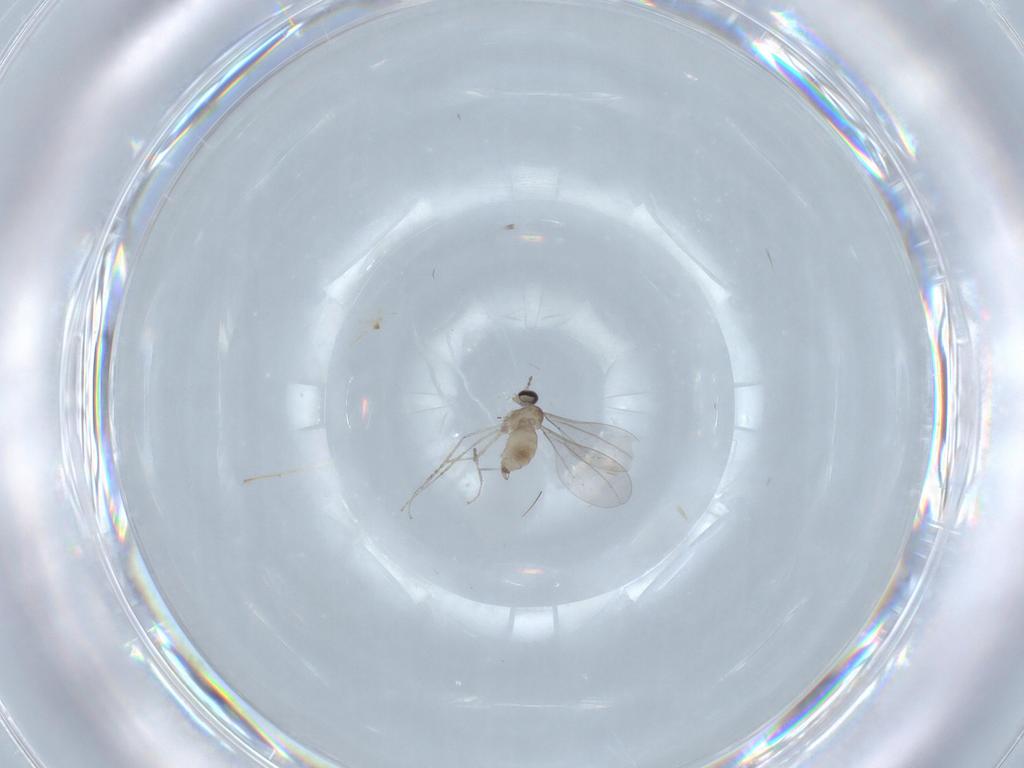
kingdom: Animalia
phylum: Arthropoda
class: Insecta
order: Diptera
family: Cecidomyiidae
